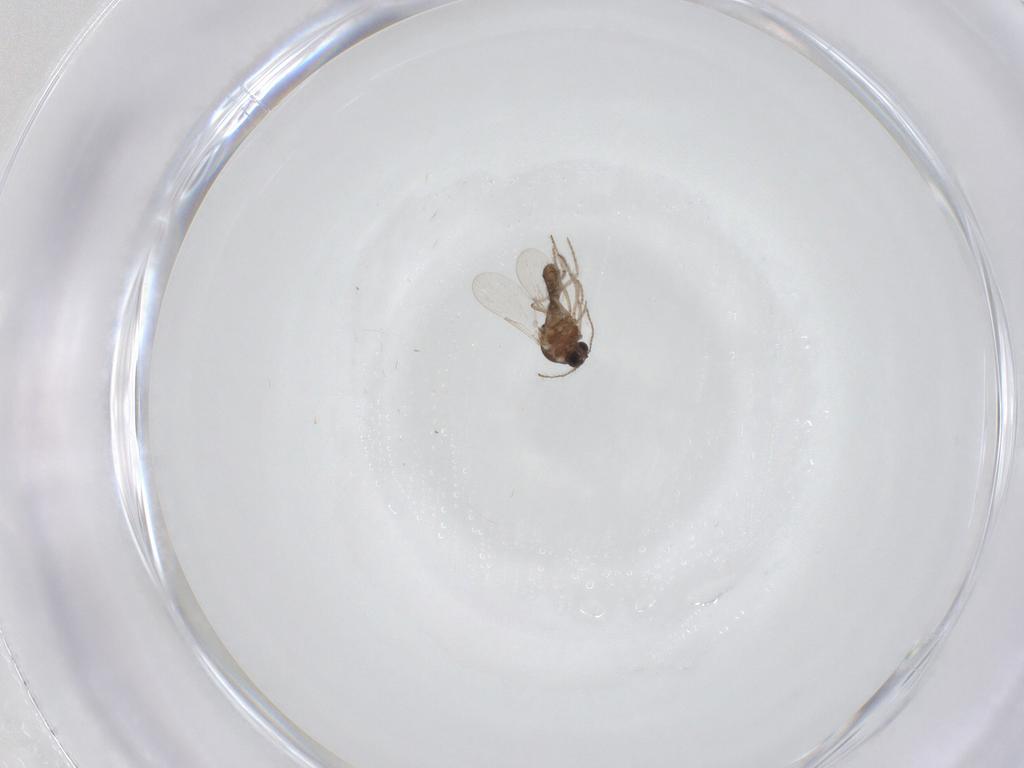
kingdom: Animalia
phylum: Arthropoda
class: Insecta
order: Diptera
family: Ceratopogonidae
